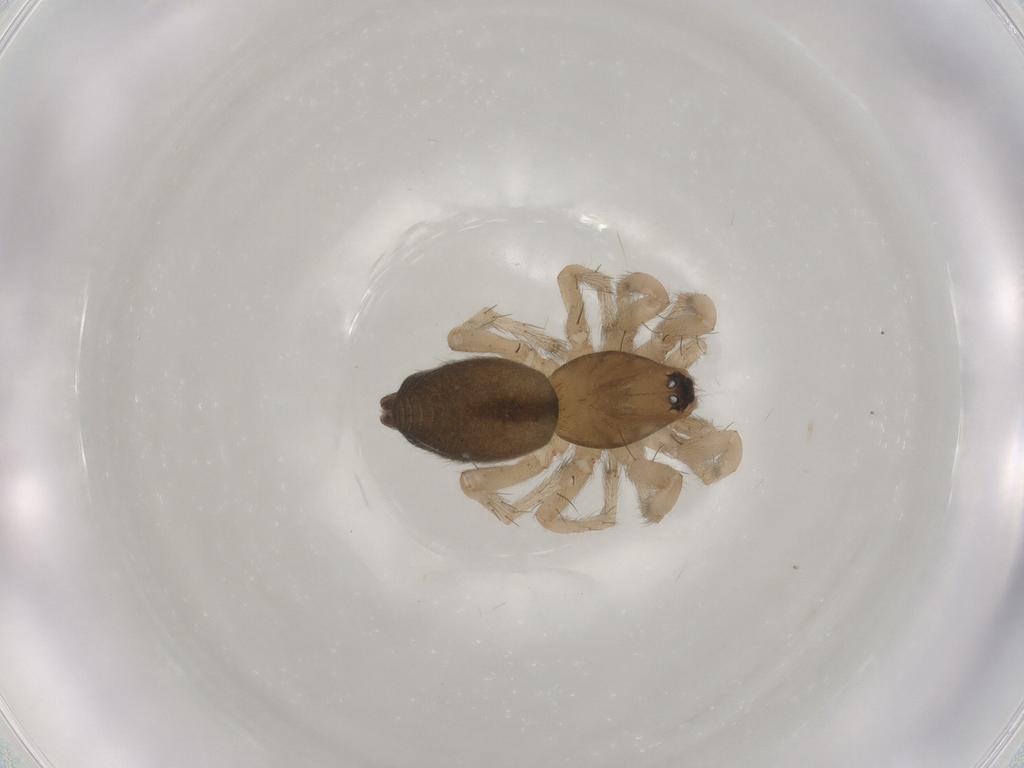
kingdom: Animalia
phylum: Arthropoda
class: Arachnida
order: Araneae
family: Gnaphosidae
